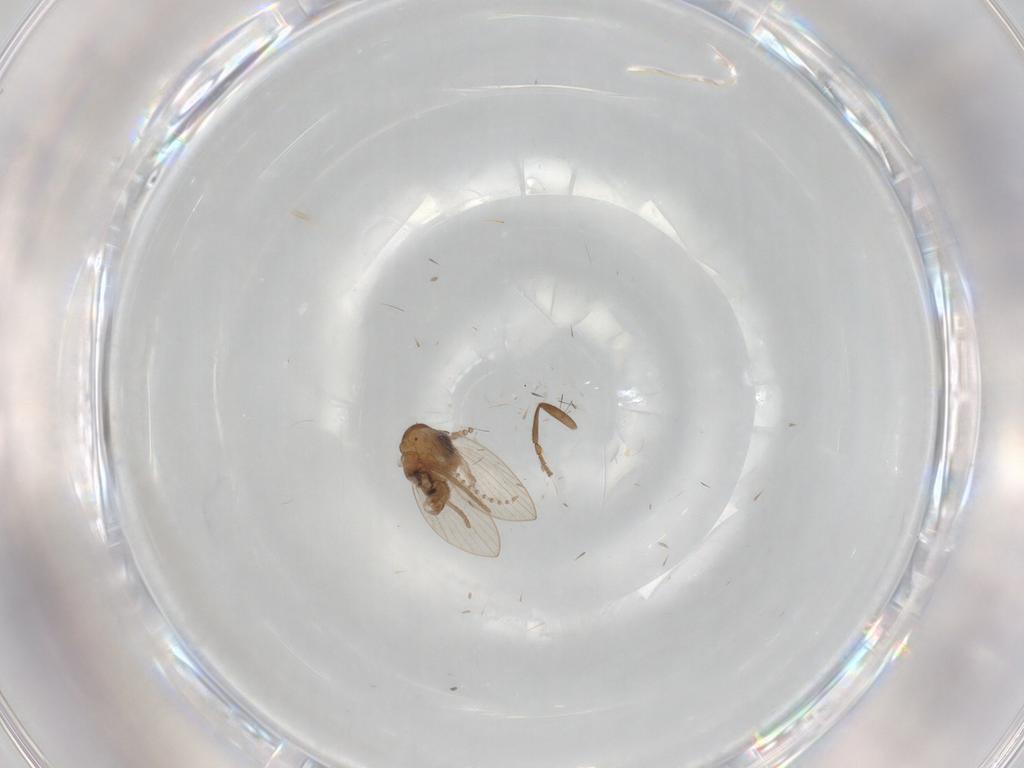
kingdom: Animalia
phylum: Arthropoda
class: Insecta
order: Diptera
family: Psychodidae
